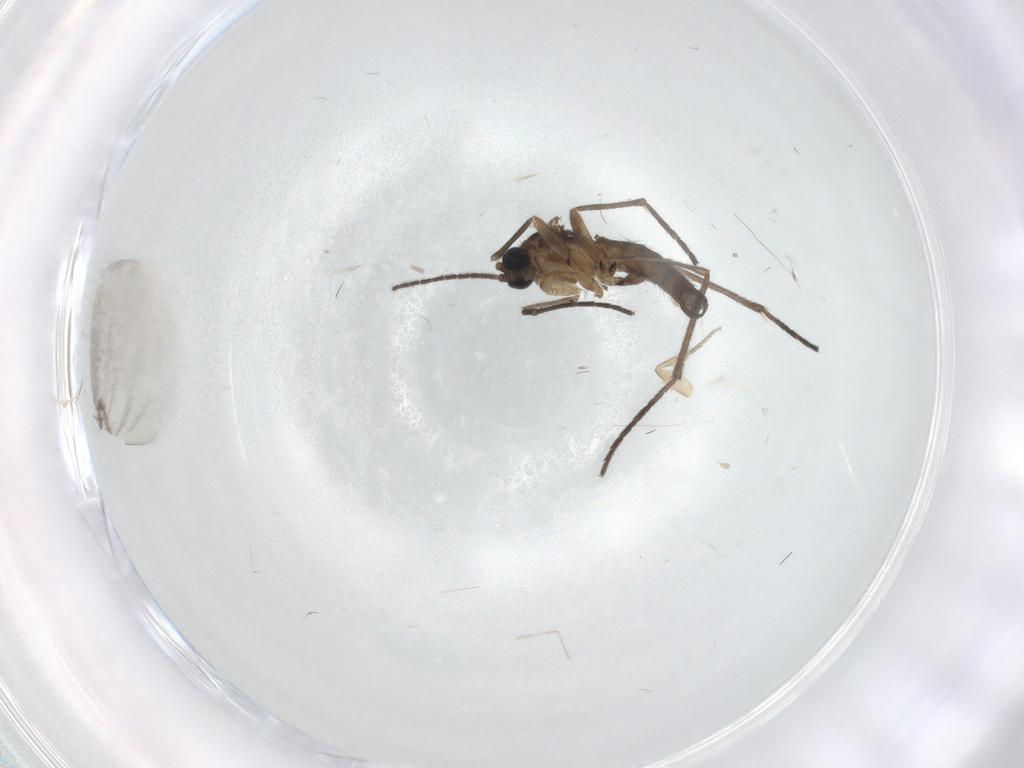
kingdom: Animalia
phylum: Arthropoda
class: Insecta
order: Diptera
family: Sciaridae
